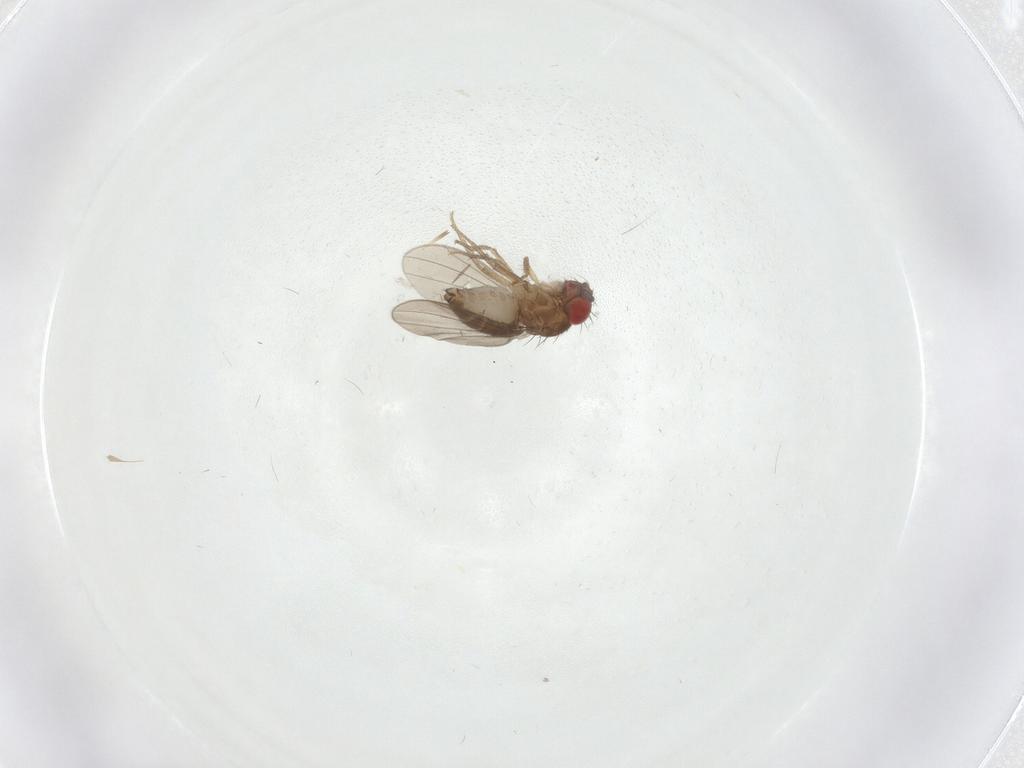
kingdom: Animalia
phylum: Arthropoda
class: Insecta
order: Diptera
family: Drosophilidae
